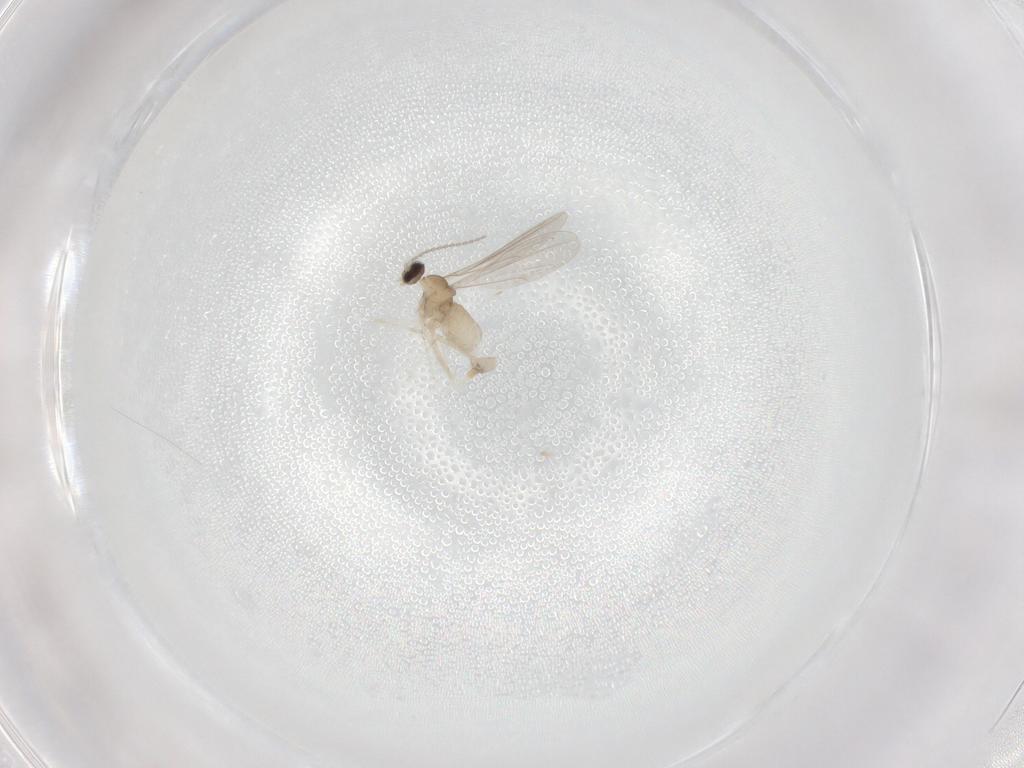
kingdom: Animalia
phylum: Arthropoda
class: Insecta
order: Diptera
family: Cecidomyiidae
